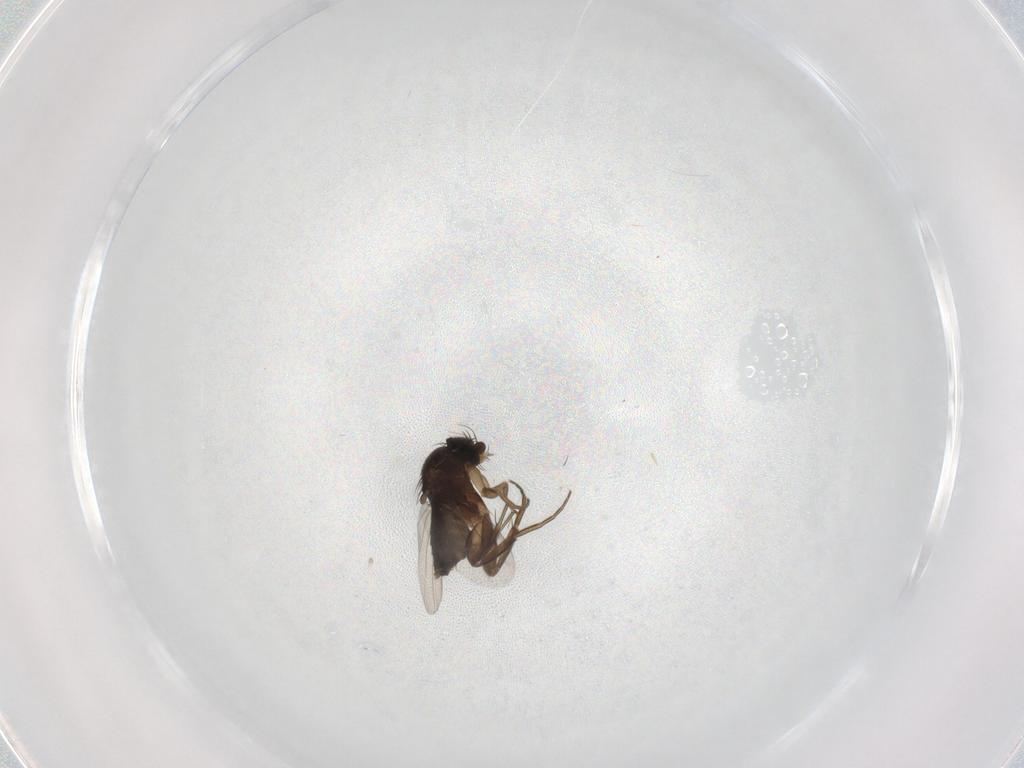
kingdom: Animalia
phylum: Arthropoda
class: Insecta
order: Diptera
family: Phoridae
